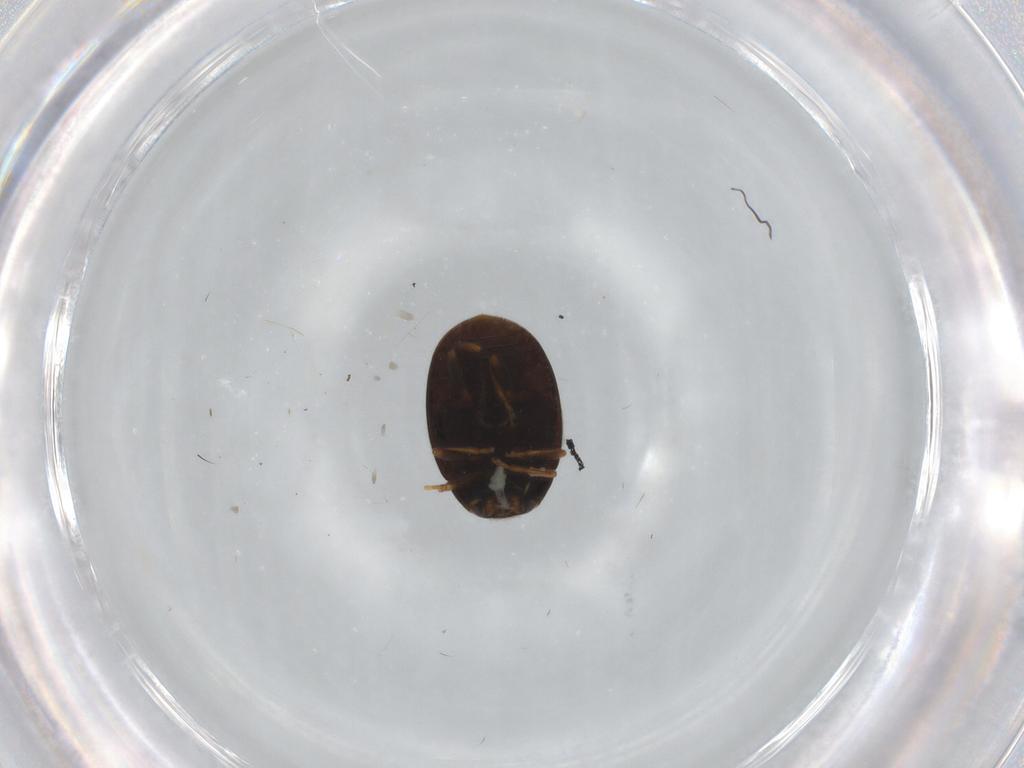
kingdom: Animalia
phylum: Arthropoda
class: Insecta
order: Coleoptera
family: Coccinellidae
